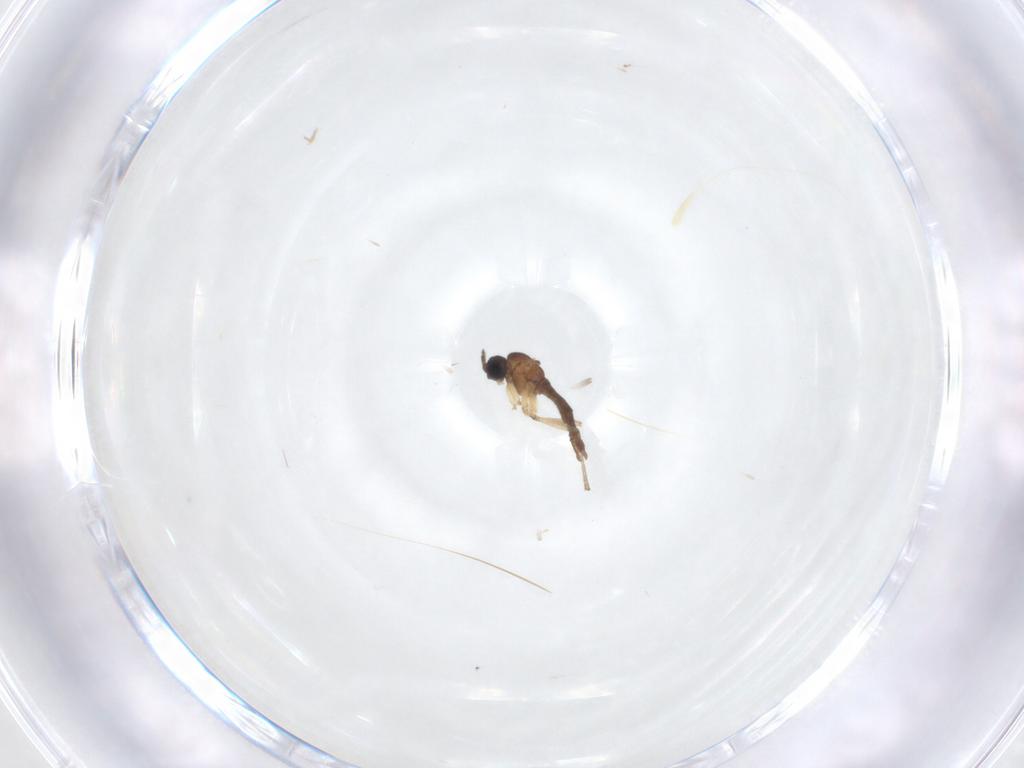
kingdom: Animalia
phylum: Arthropoda
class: Insecta
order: Diptera
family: Sciaridae
